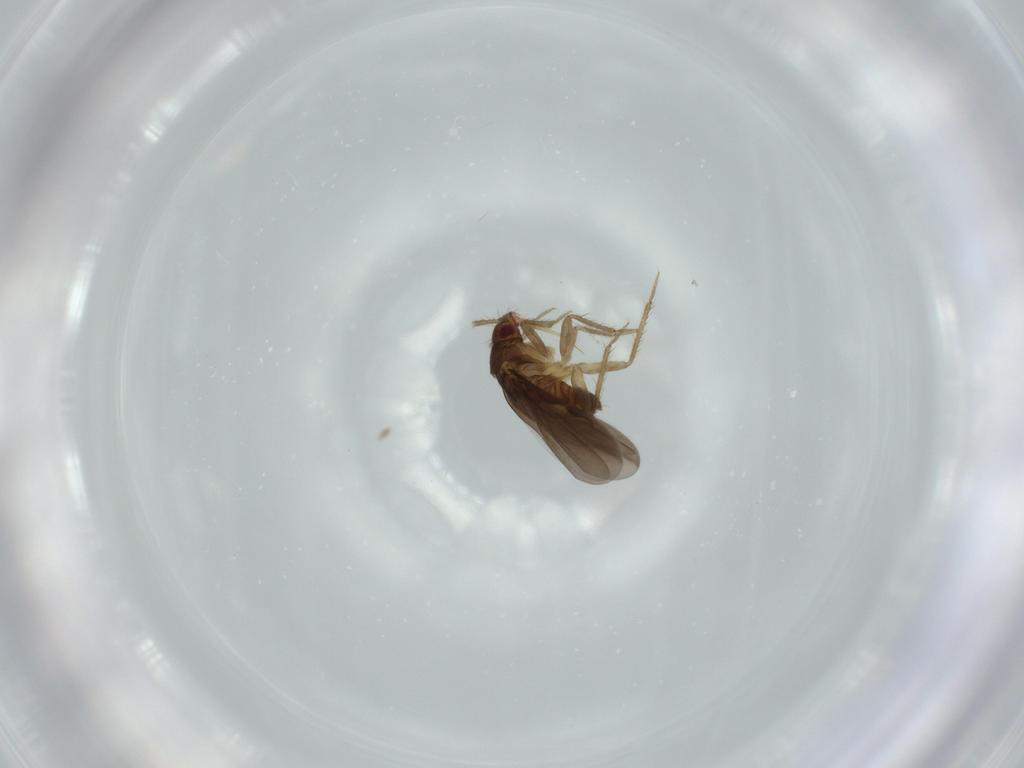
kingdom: Animalia
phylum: Arthropoda
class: Insecta
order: Hemiptera
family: Ceratocombidae
